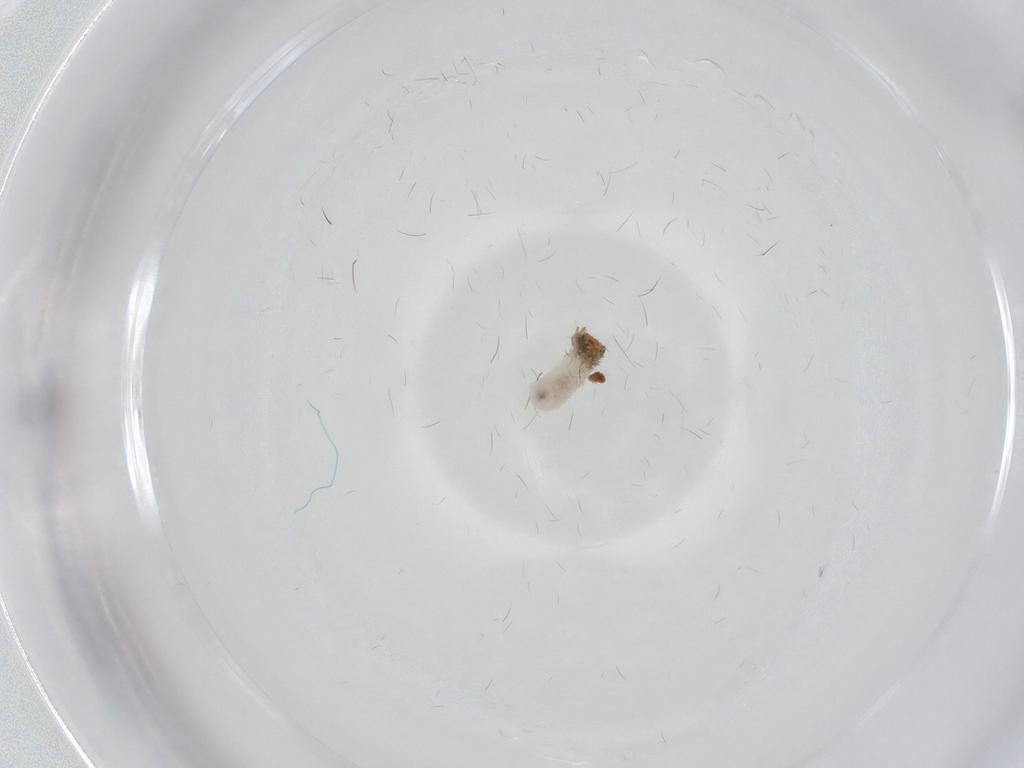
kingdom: Animalia
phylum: Arthropoda
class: Insecta
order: Diptera
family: Chironomidae
